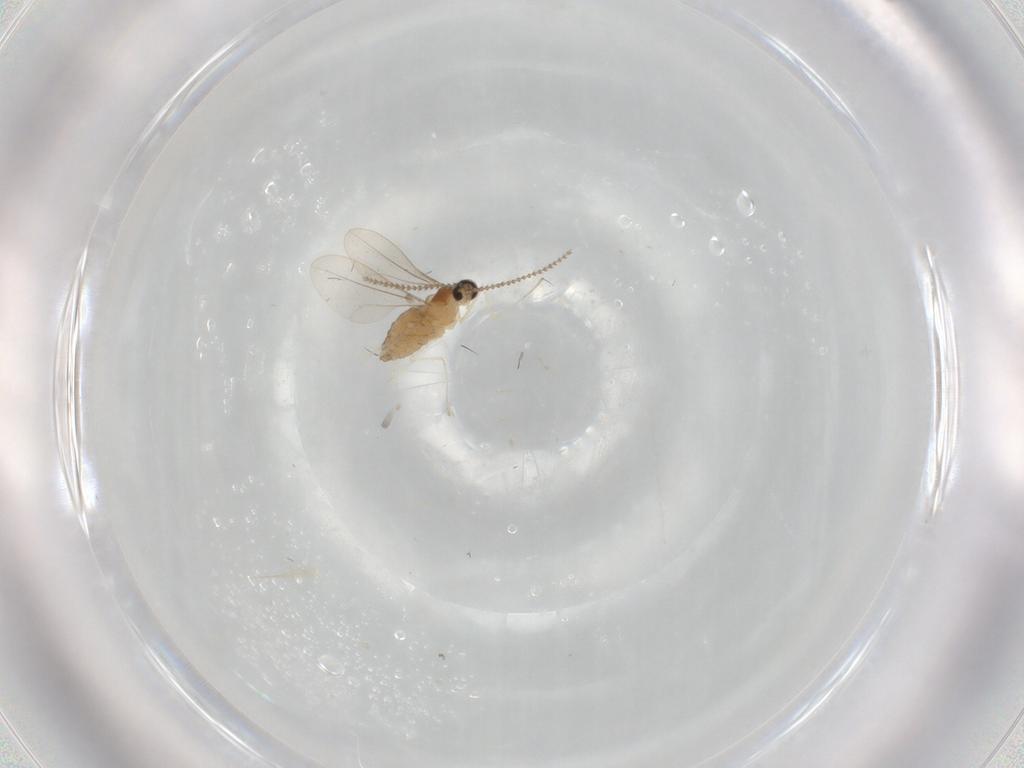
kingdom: Animalia
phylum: Arthropoda
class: Insecta
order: Diptera
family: Cecidomyiidae
